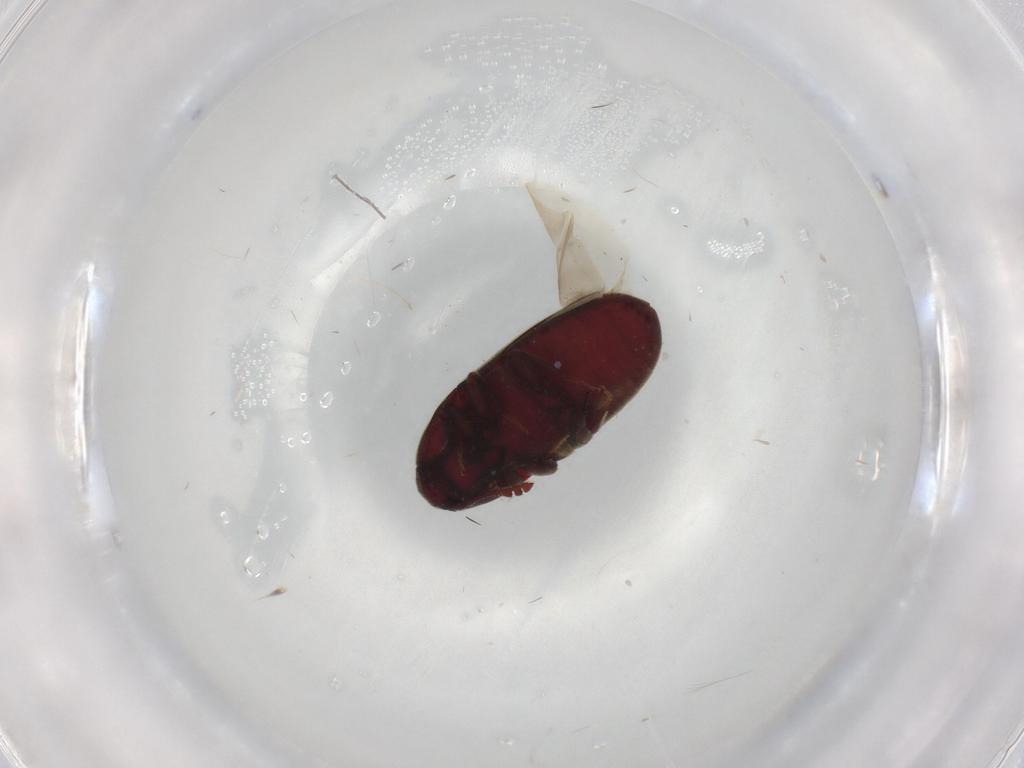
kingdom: Animalia
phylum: Arthropoda
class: Insecta
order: Coleoptera
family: Throscidae
